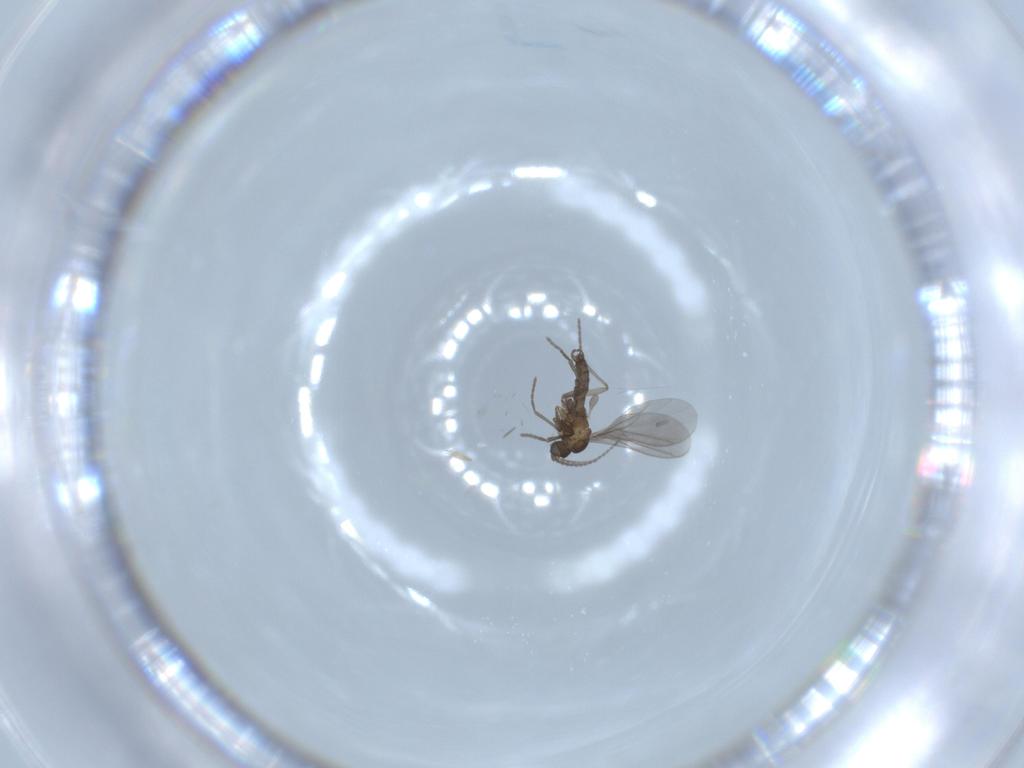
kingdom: Animalia
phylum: Arthropoda
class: Insecta
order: Diptera
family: Sciaridae
